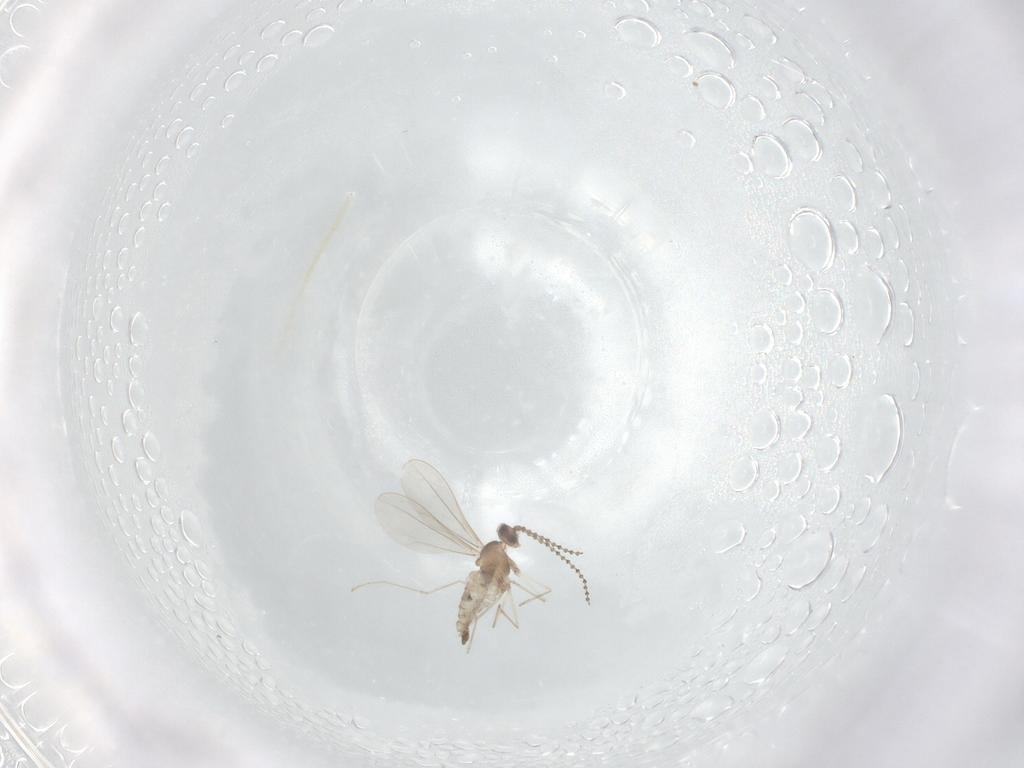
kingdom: Animalia
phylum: Arthropoda
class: Insecta
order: Diptera
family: Cecidomyiidae
